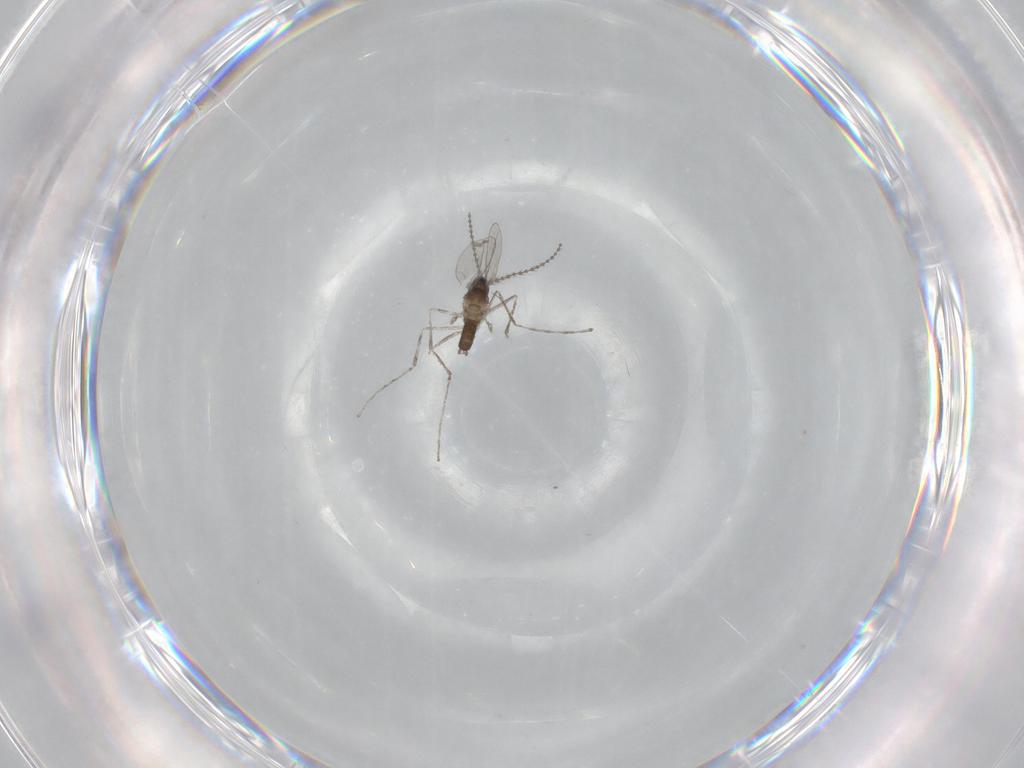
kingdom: Animalia
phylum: Arthropoda
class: Insecta
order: Diptera
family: Cecidomyiidae
